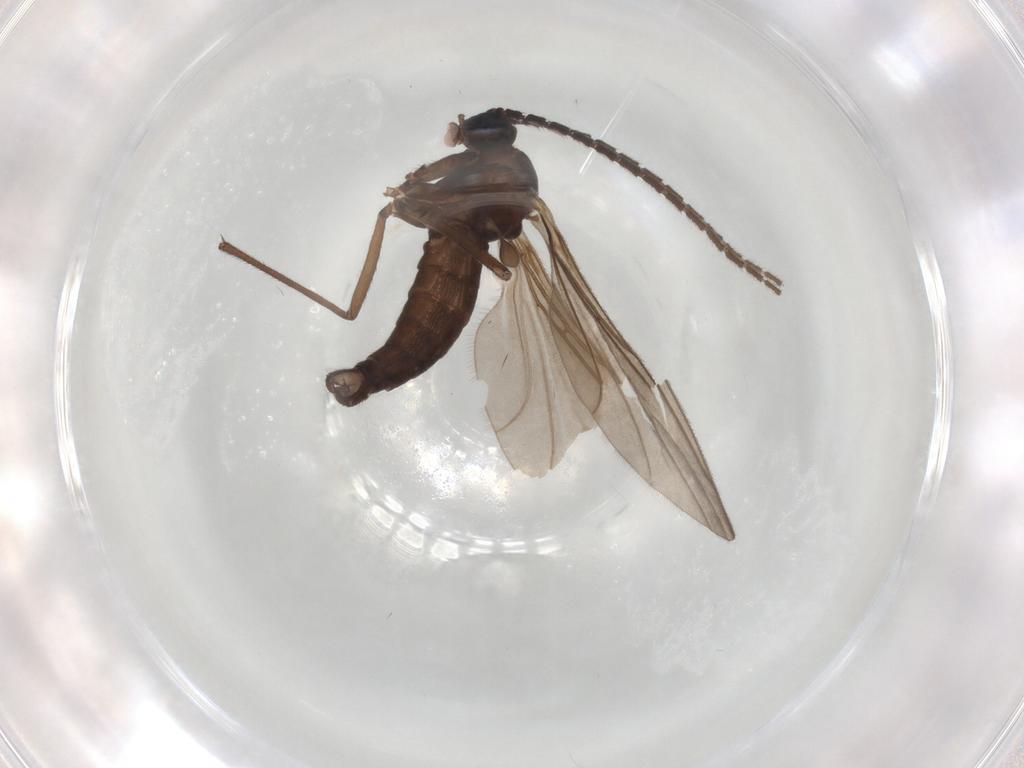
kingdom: Animalia
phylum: Arthropoda
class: Insecta
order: Diptera
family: Sciaridae
